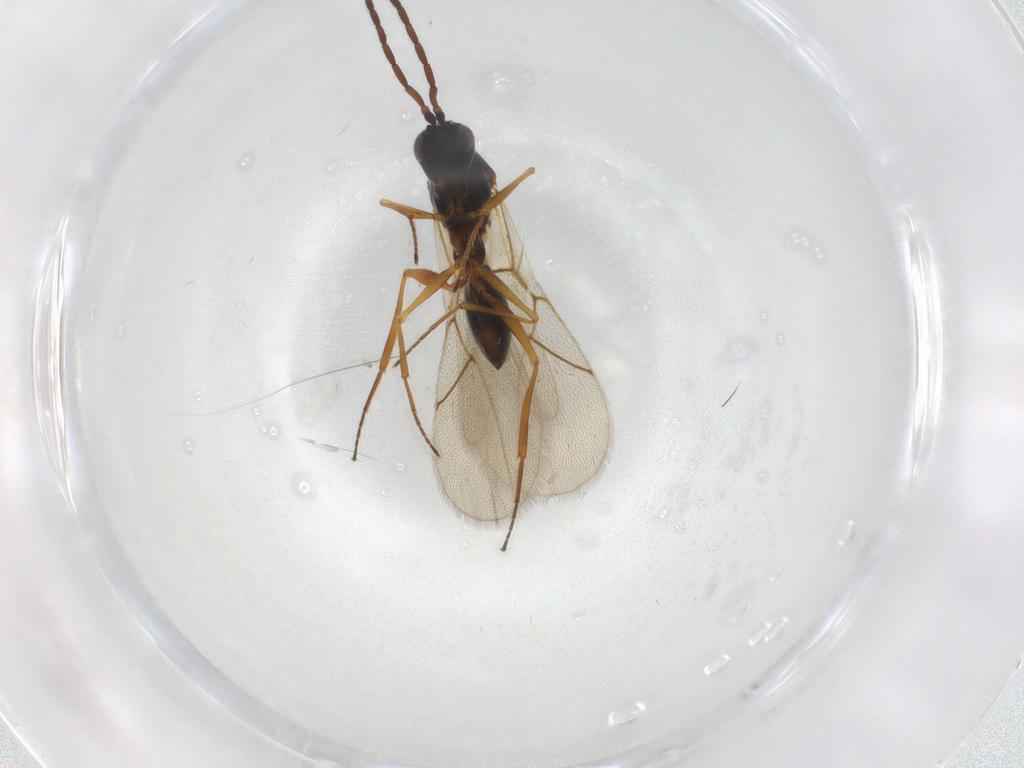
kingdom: Animalia
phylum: Arthropoda
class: Insecta
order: Hymenoptera
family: Figitidae
